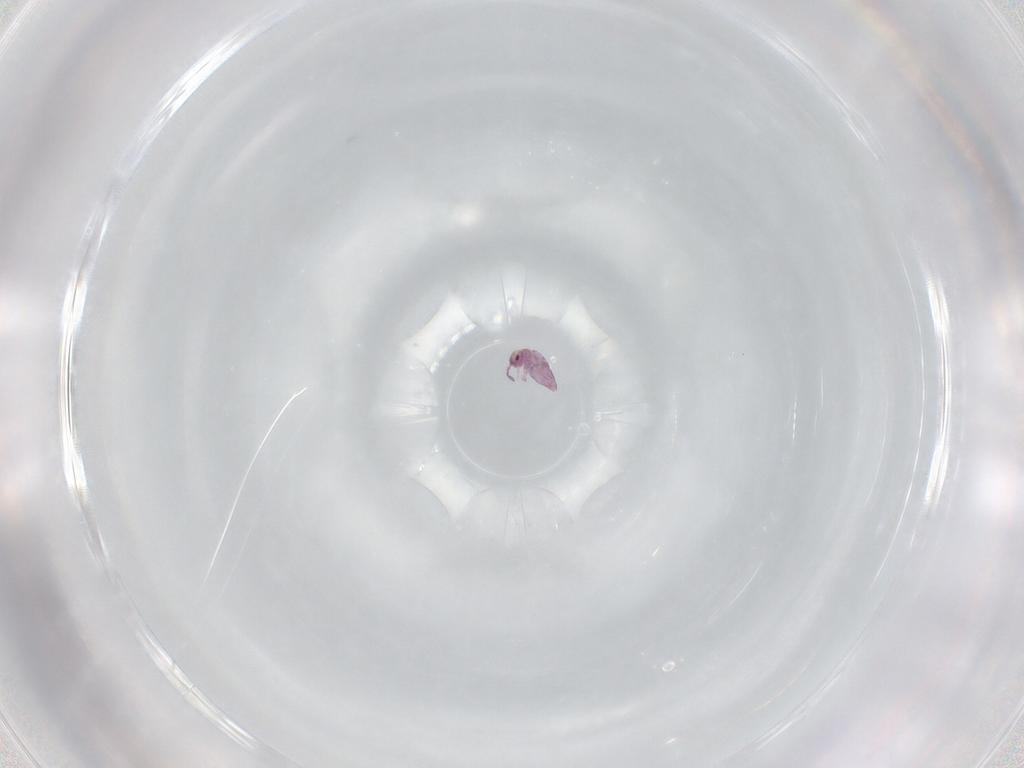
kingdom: Animalia
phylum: Arthropoda
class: Collembola
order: Entomobryomorpha
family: Entomobryidae
